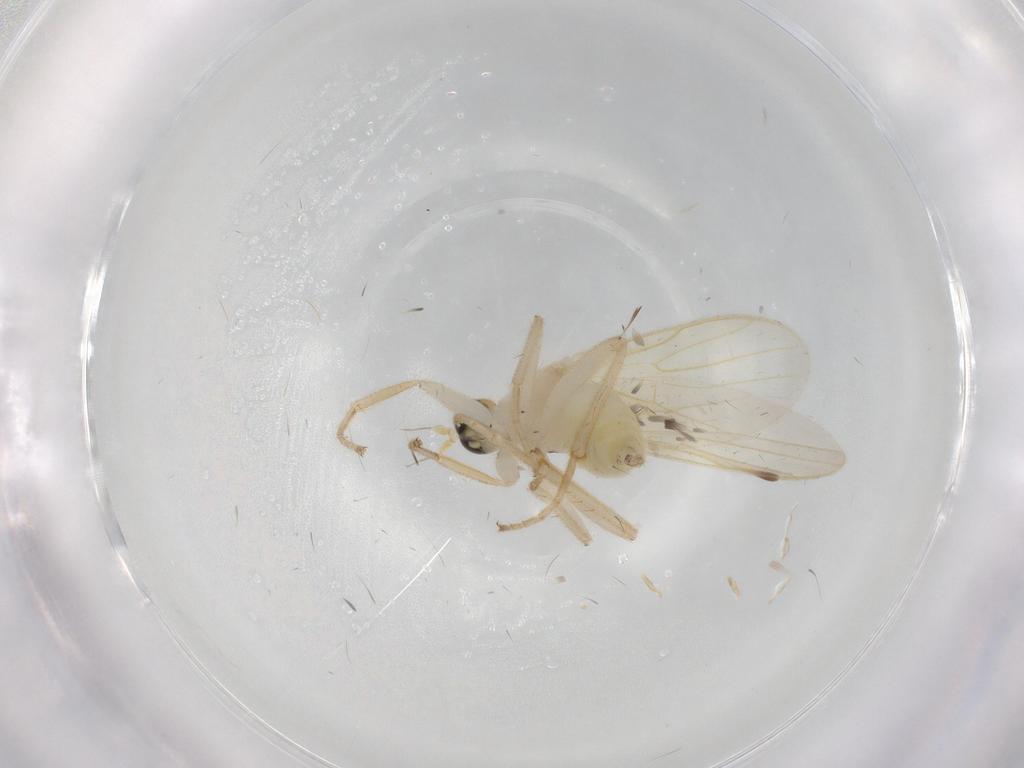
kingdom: Animalia
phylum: Arthropoda
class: Insecta
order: Diptera
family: Hybotidae
